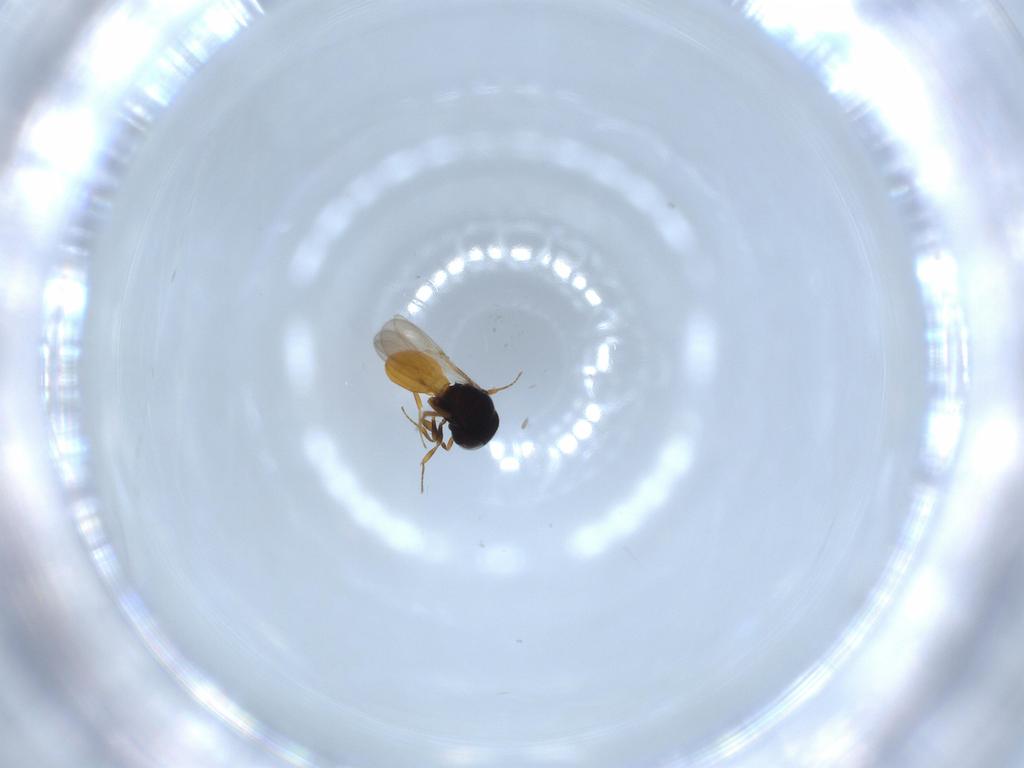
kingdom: Animalia
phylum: Arthropoda
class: Insecta
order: Hymenoptera
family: Scelionidae
